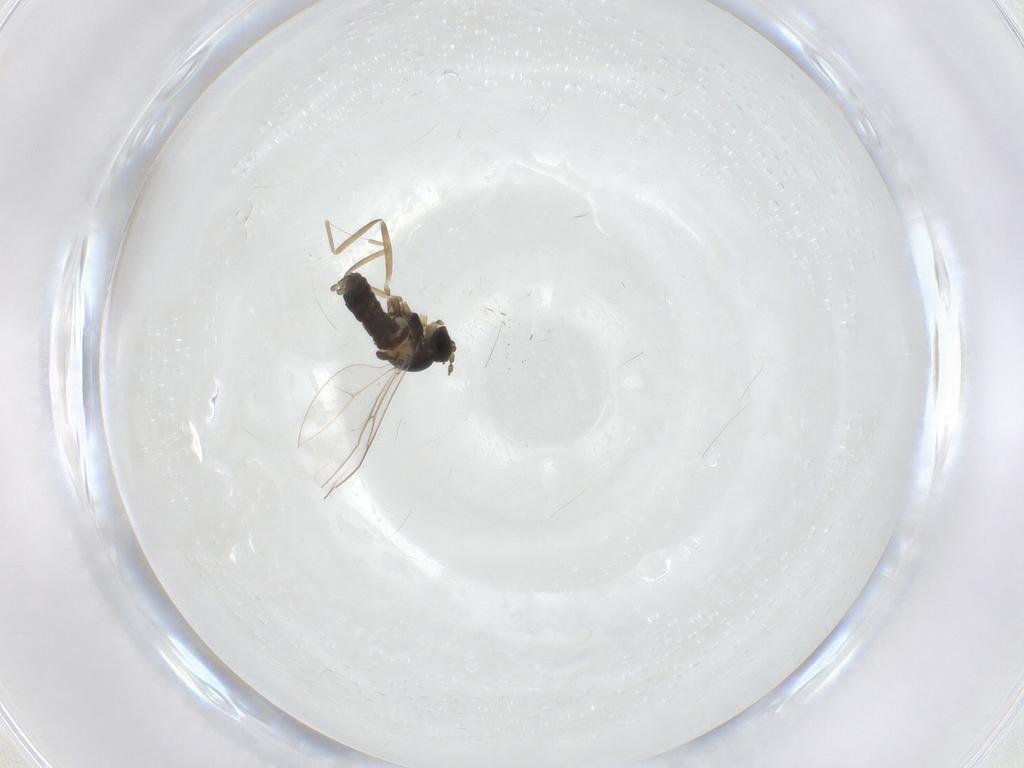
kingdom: Animalia
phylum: Arthropoda
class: Insecta
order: Diptera
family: Cecidomyiidae
